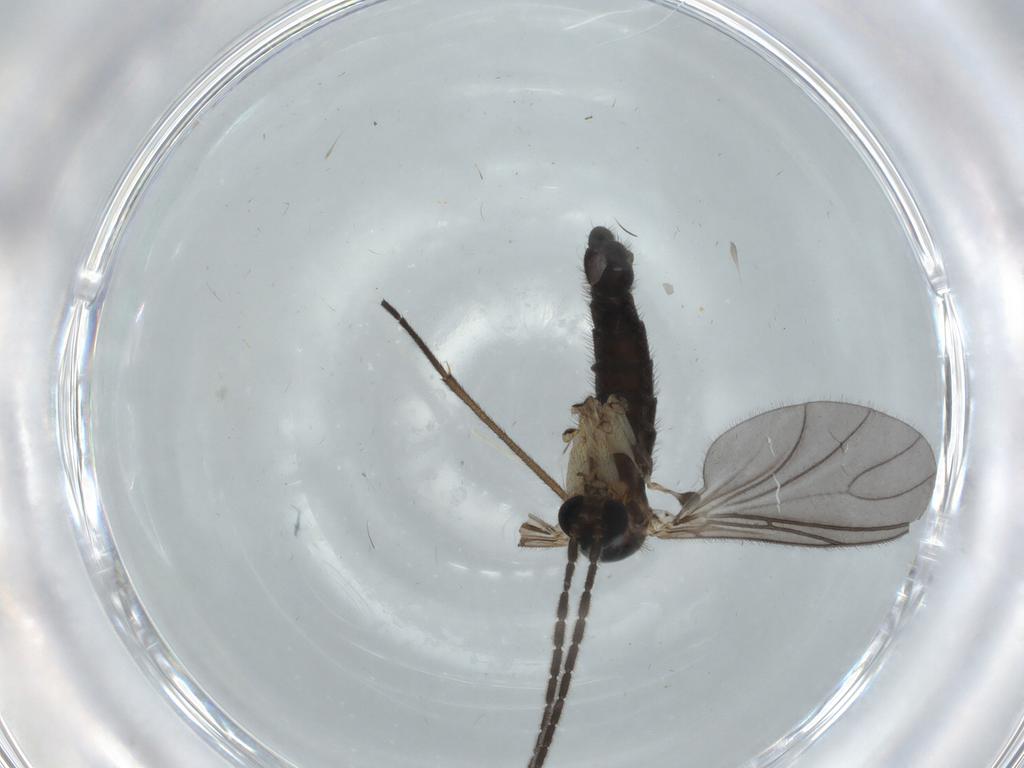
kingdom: Animalia
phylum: Arthropoda
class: Insecta
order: Diptera
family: Sciaridae
